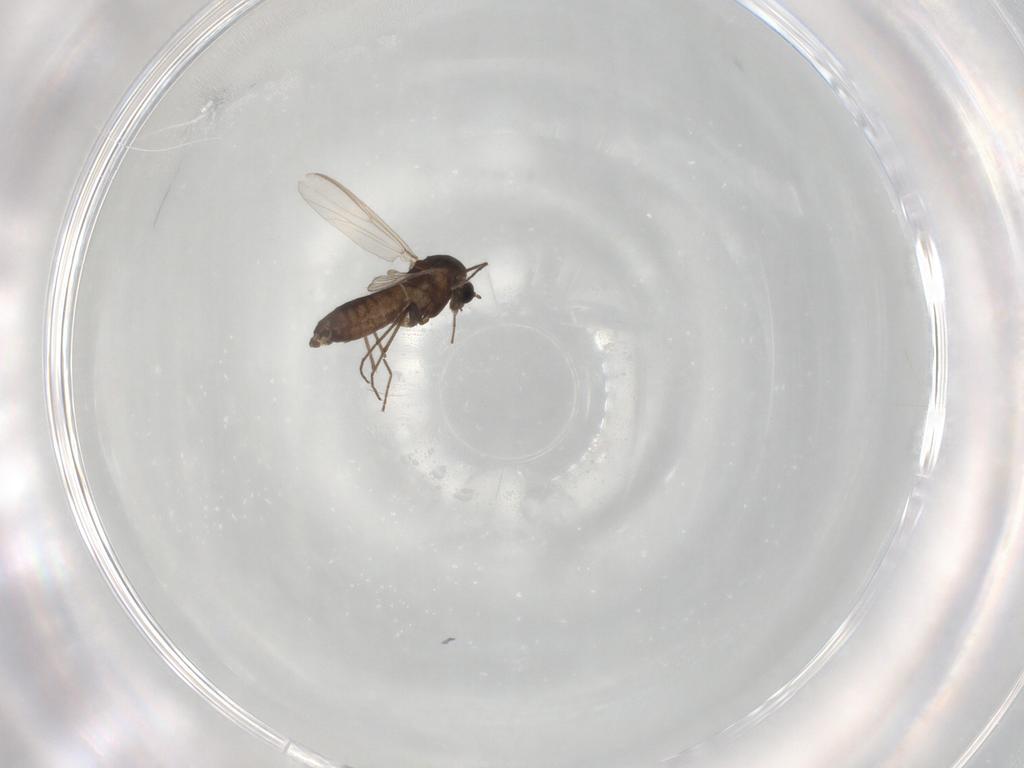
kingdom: Animalia
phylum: Arthropoda
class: Insecta
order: Diptera
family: Chironomidae
